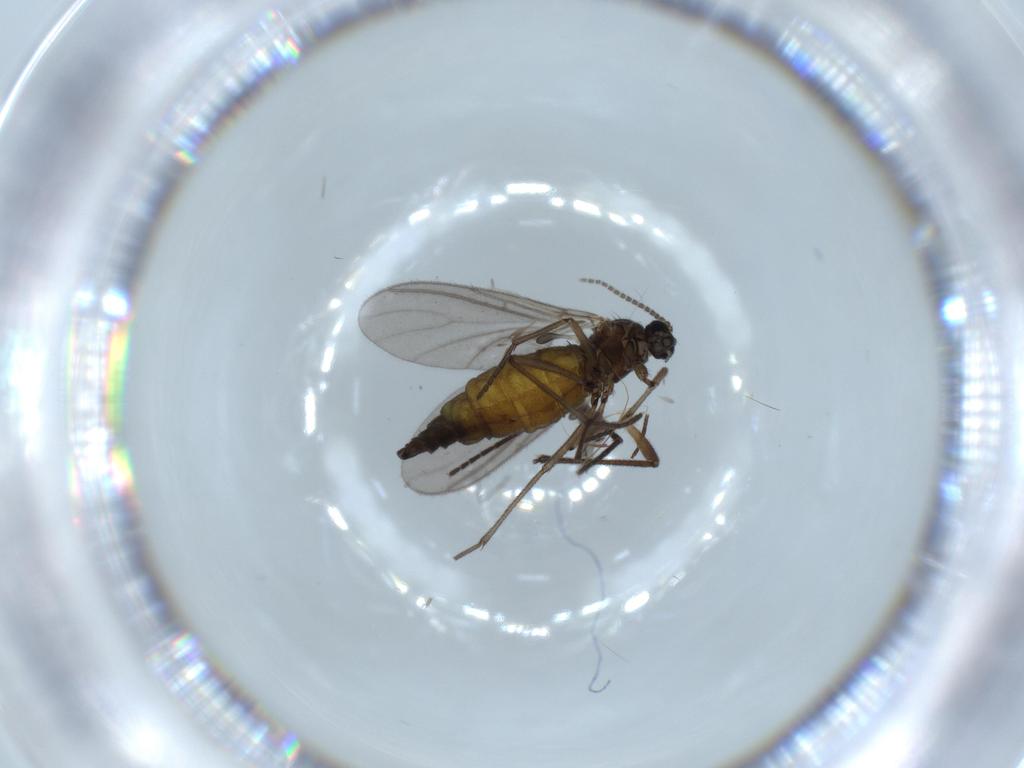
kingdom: Animalia
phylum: Arthropoda
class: Insecta
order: Diptera
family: Sciaridae
